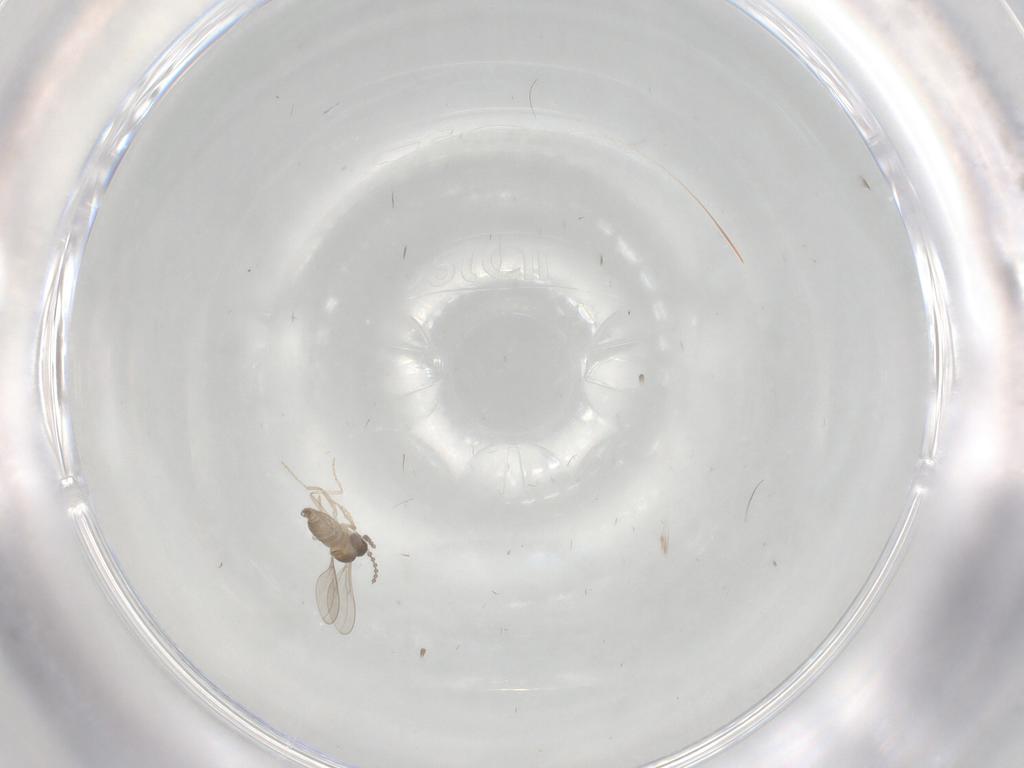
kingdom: Animalia
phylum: Arthropoda
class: Insecta
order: Diptera
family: Cecidomyiidae
